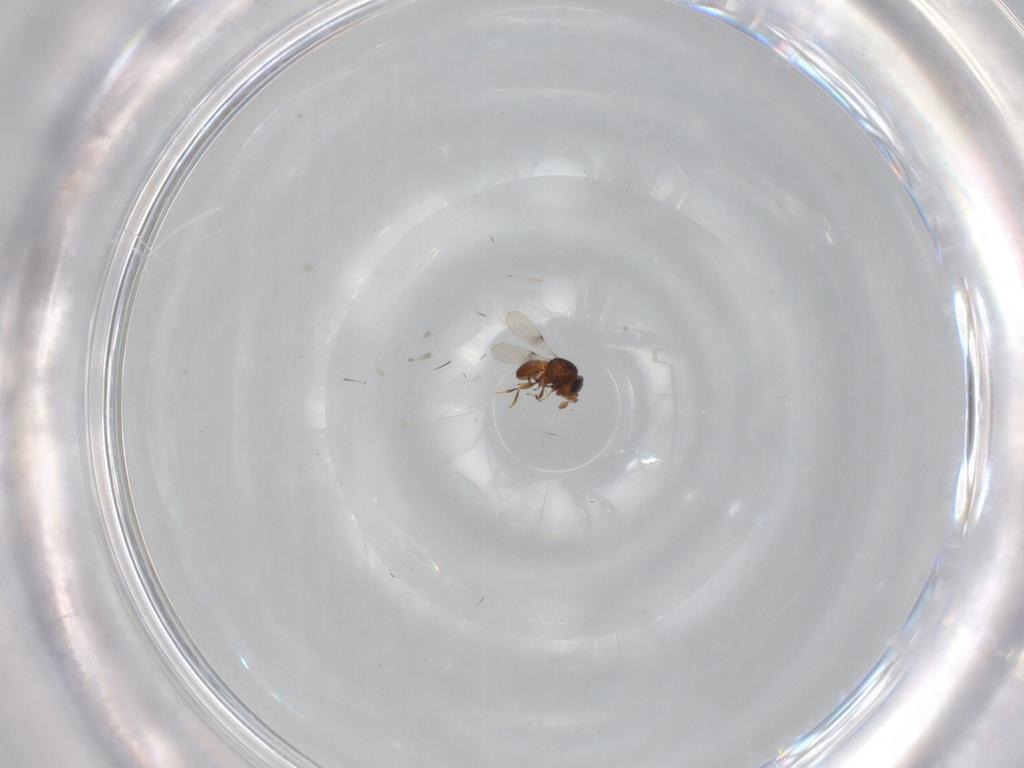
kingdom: Animalia
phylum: Arthropoda
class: Insecta
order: Hymenoptera
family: Scelionidae
